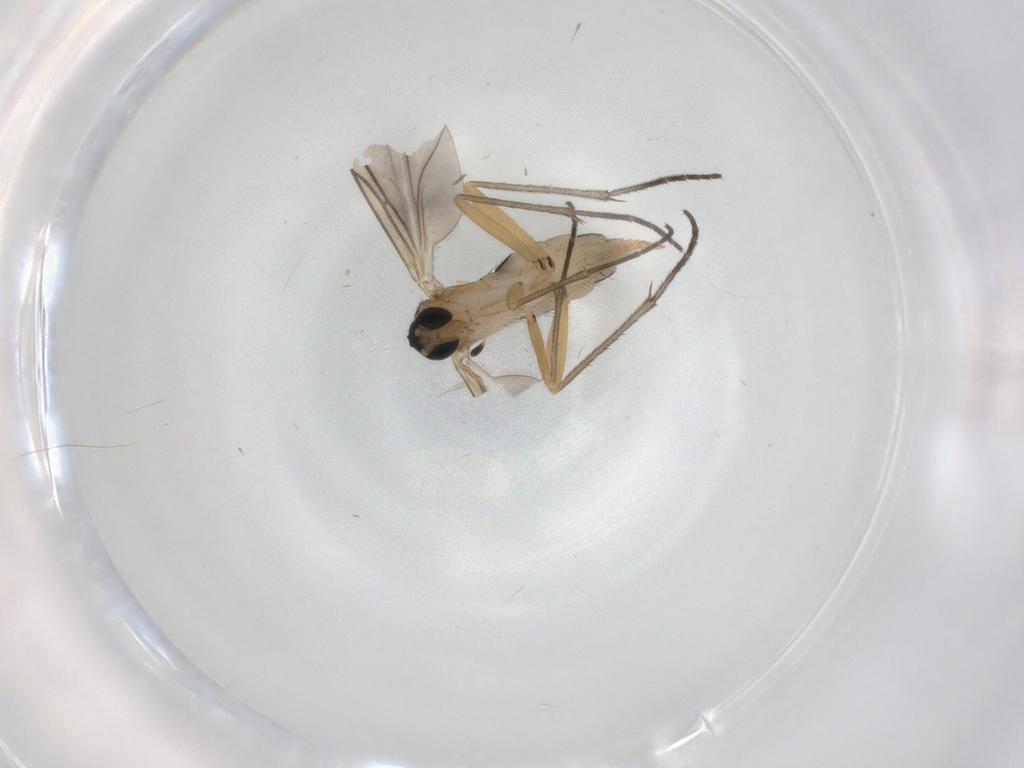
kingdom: Animalia
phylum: Arthropoda
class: Insecta
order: Diptera
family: Sciaridae
